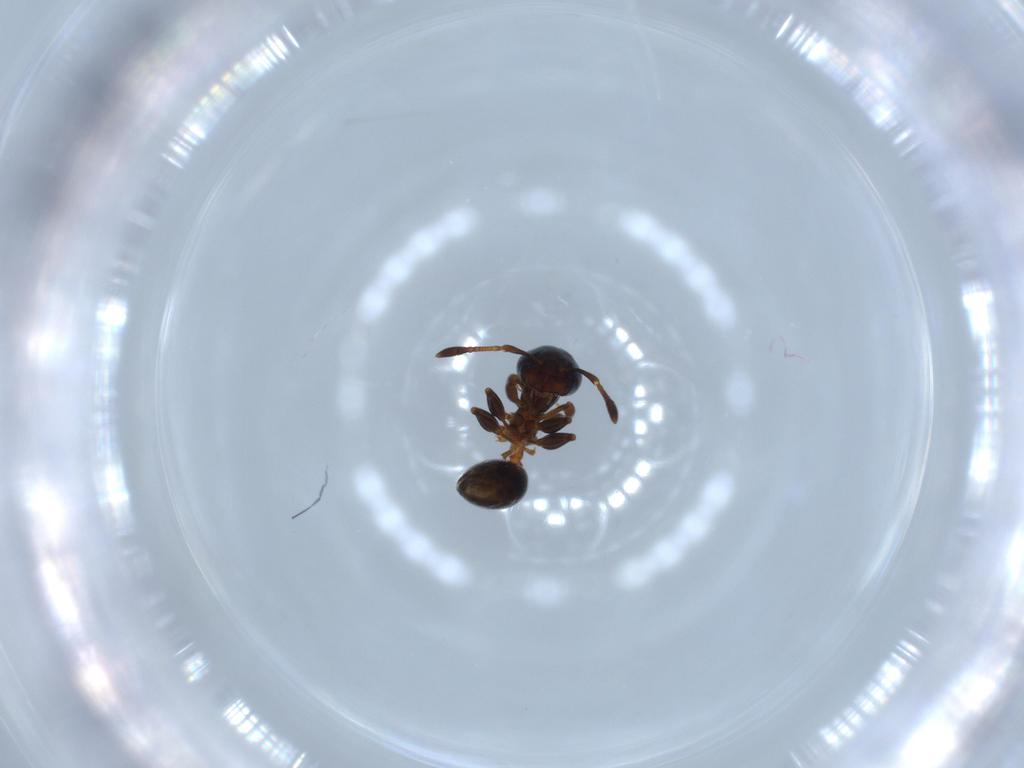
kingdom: Animalia
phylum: Arthropoda
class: Insecta
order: Hymenoptera
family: Formicidae
